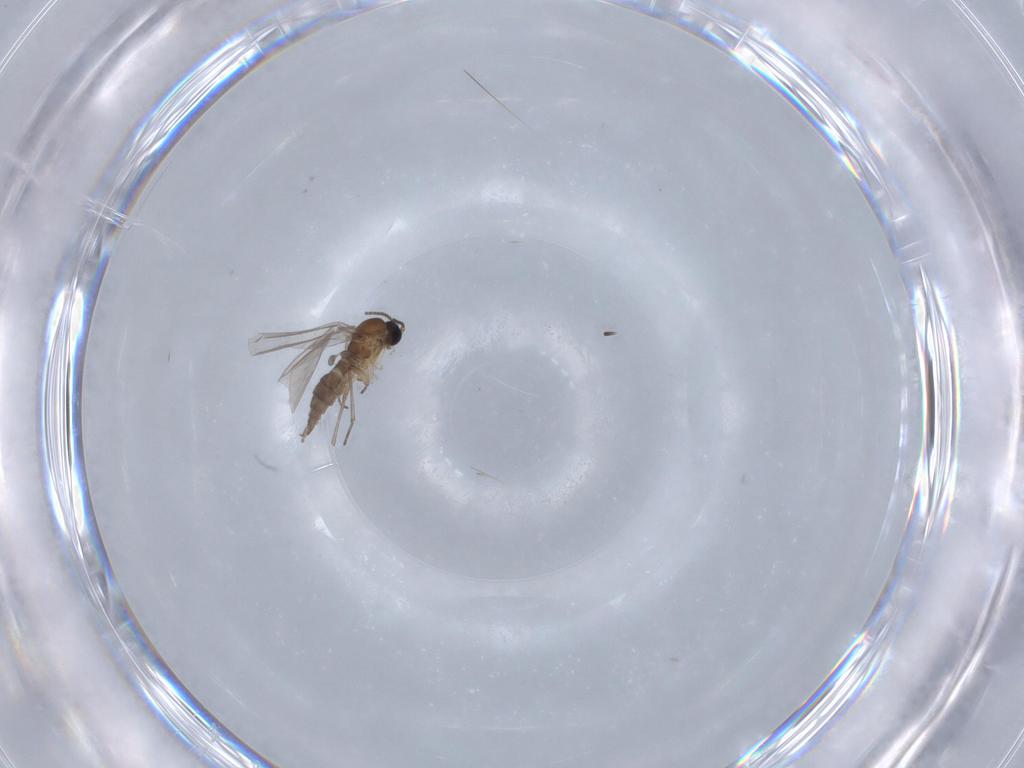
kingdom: Animalia
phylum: Arthropoda
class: Insecta
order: Diptera
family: Sciaridae
